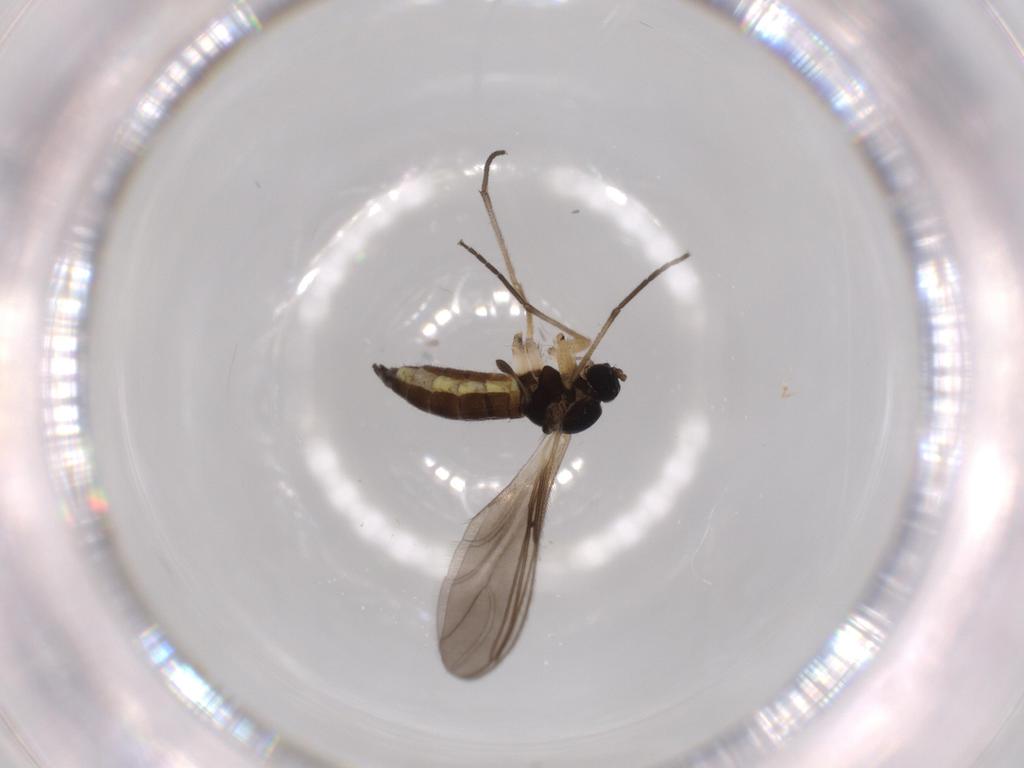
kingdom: Animalia
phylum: Arthropoda
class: Insecta
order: Diptera
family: Sciaridae
